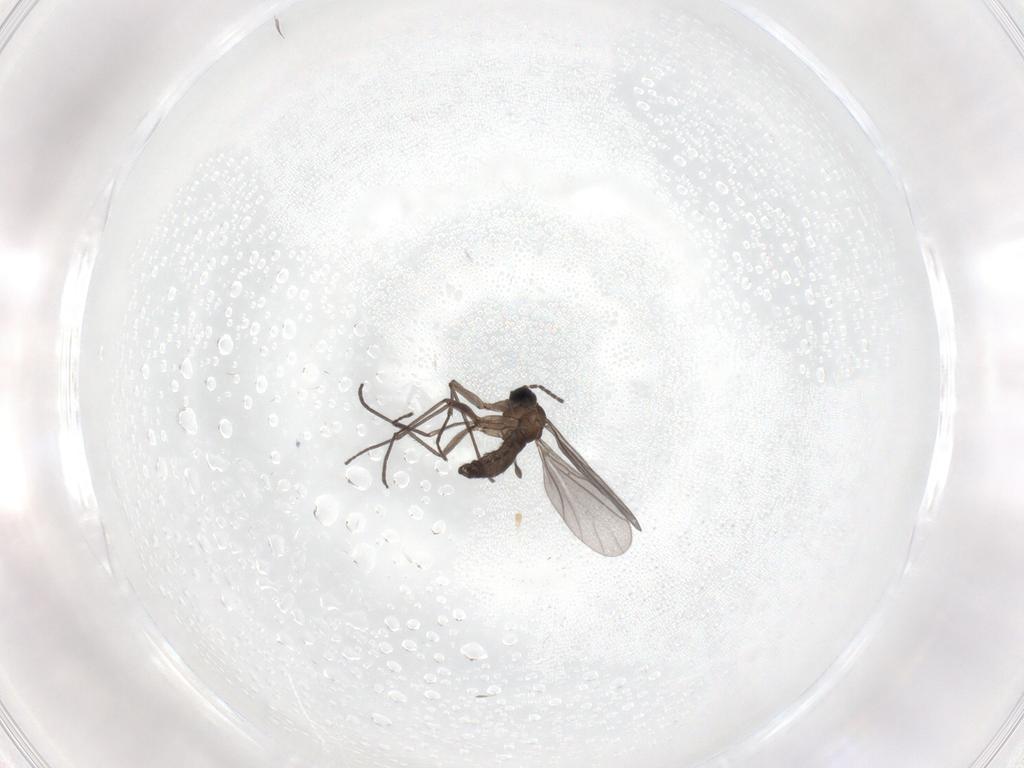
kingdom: Animalia
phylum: Arthropoda
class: Insecta
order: Diptera
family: Sciaridae
